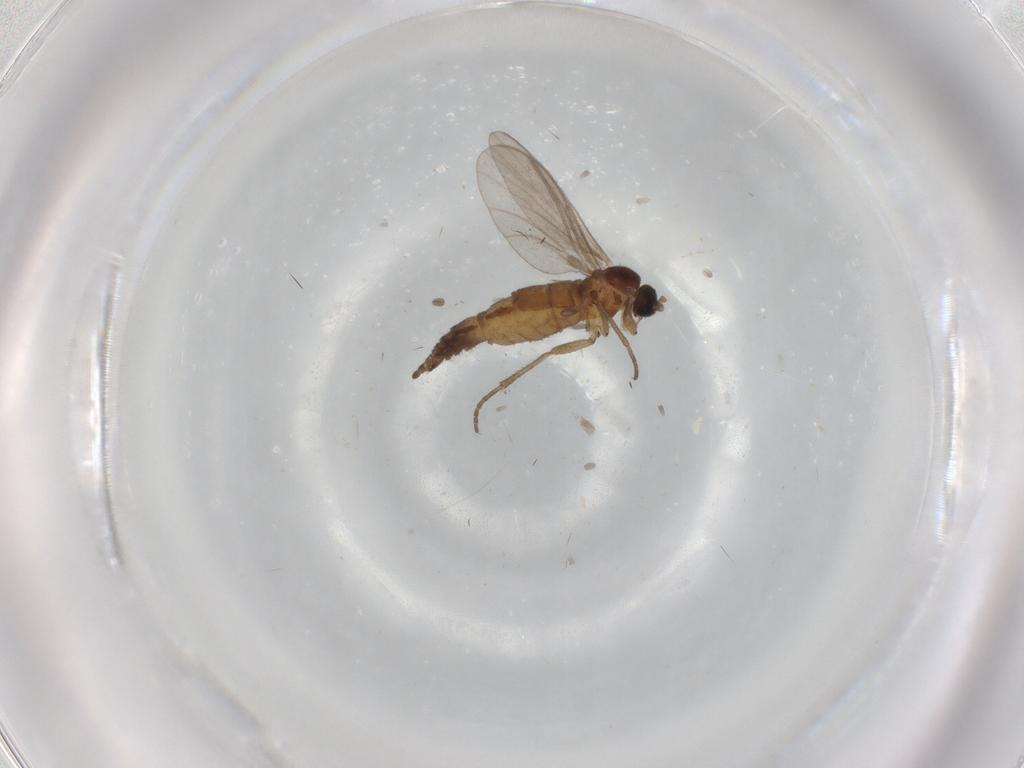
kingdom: Animalia
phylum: Arthropoda
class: Insecta
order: Diptera
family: Sciaridae
